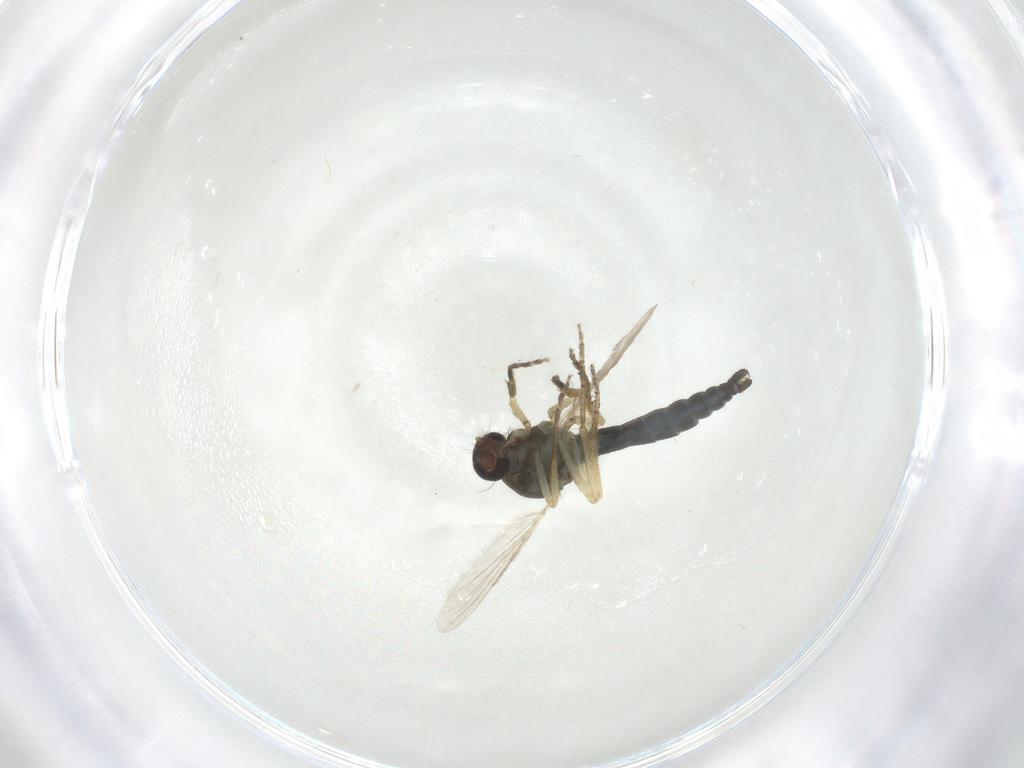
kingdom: Animalia
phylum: Arthropoda
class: Insecta
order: Diptera
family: Ceratopogonidae
